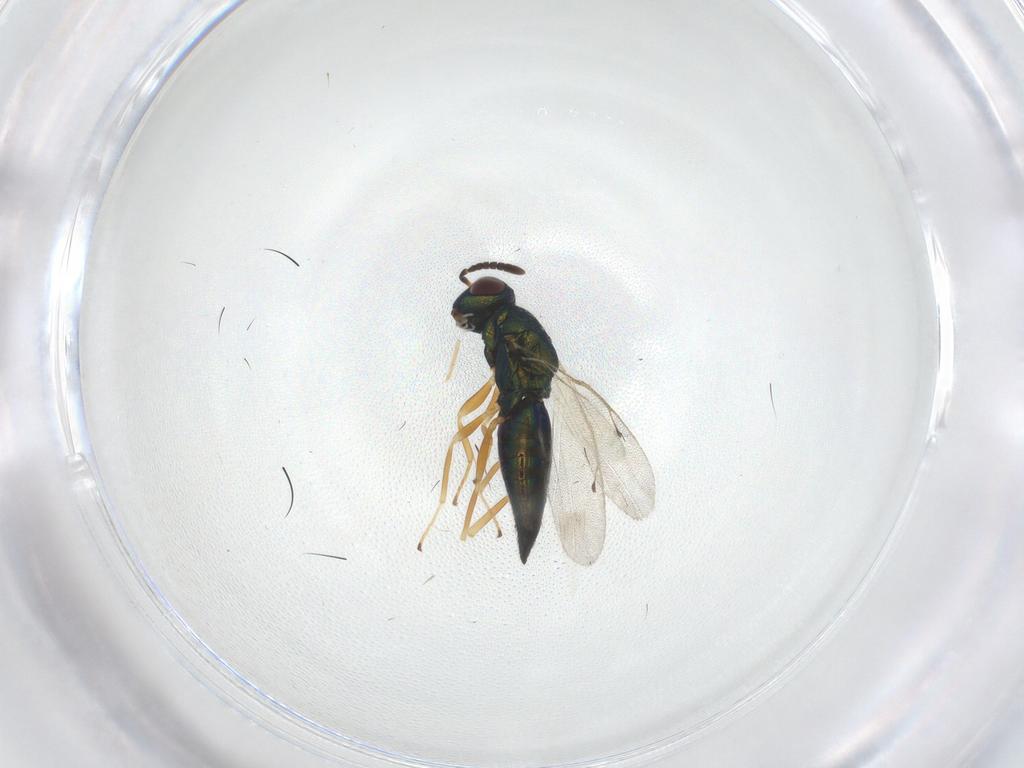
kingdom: Animalia
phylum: Arthropoda
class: Insecta
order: Hymenoptera
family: Pteromalidae
